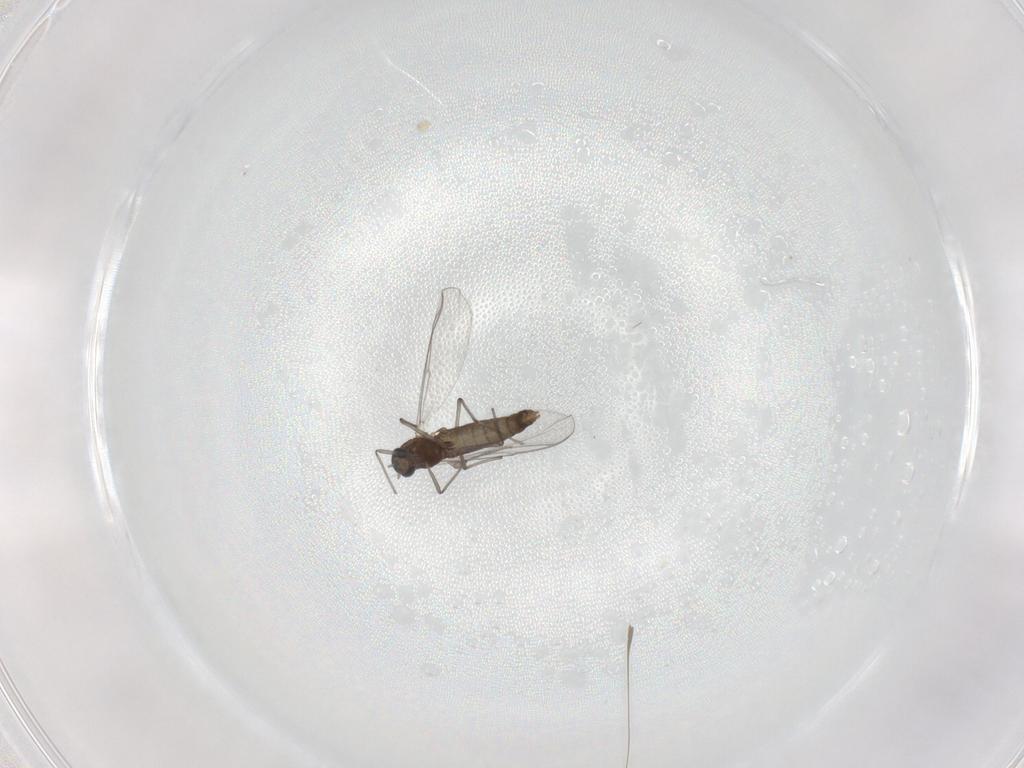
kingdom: Animalia
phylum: Arthropoda
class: Insecta
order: Diptera
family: Chironomidae
